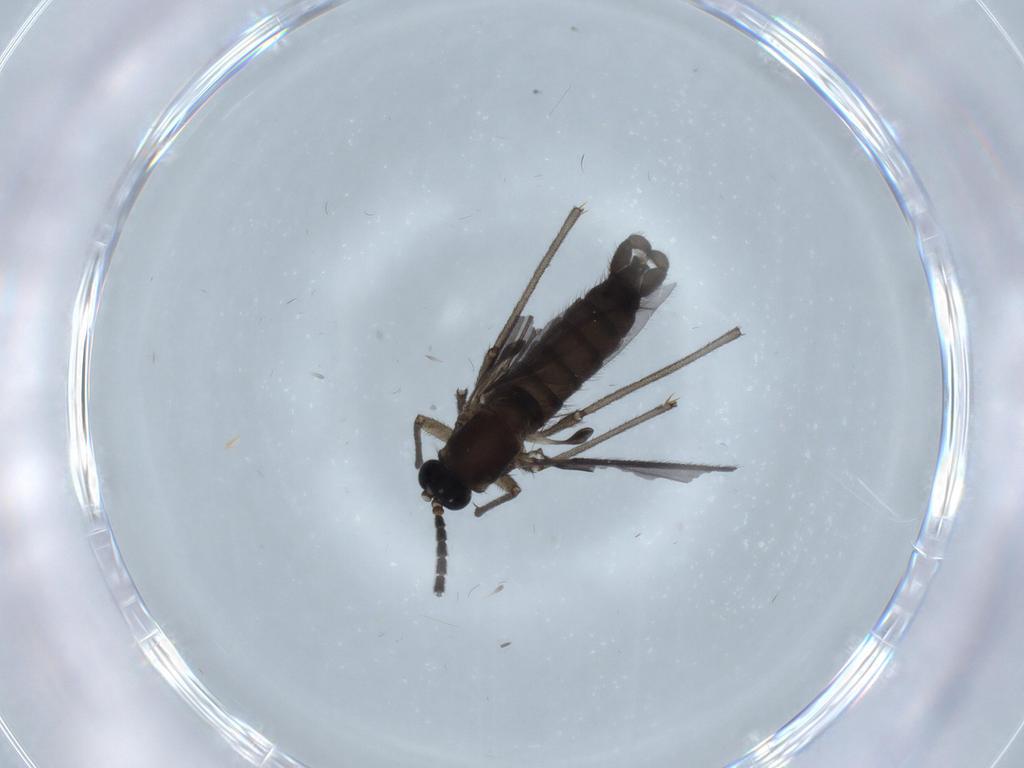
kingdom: Animalia
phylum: Arthropoda
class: Insecta
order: Diptera
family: Sciaridae
